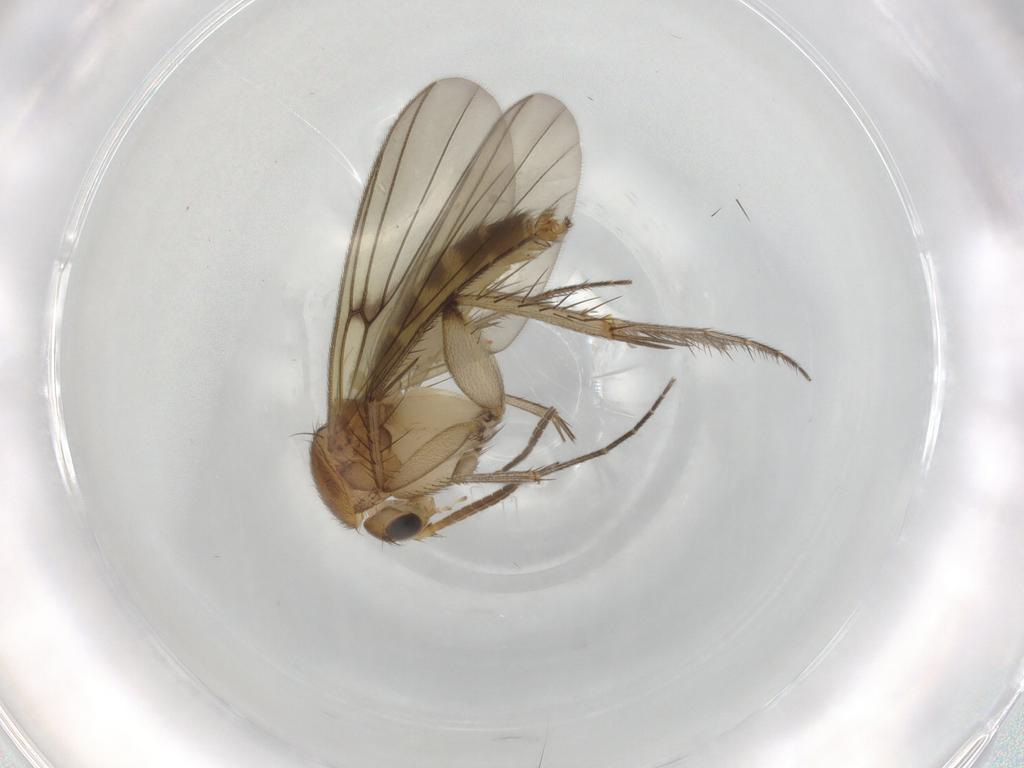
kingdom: Animalia
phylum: Arthropoda
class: Insecta
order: Diptera
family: Mycetophilidae
